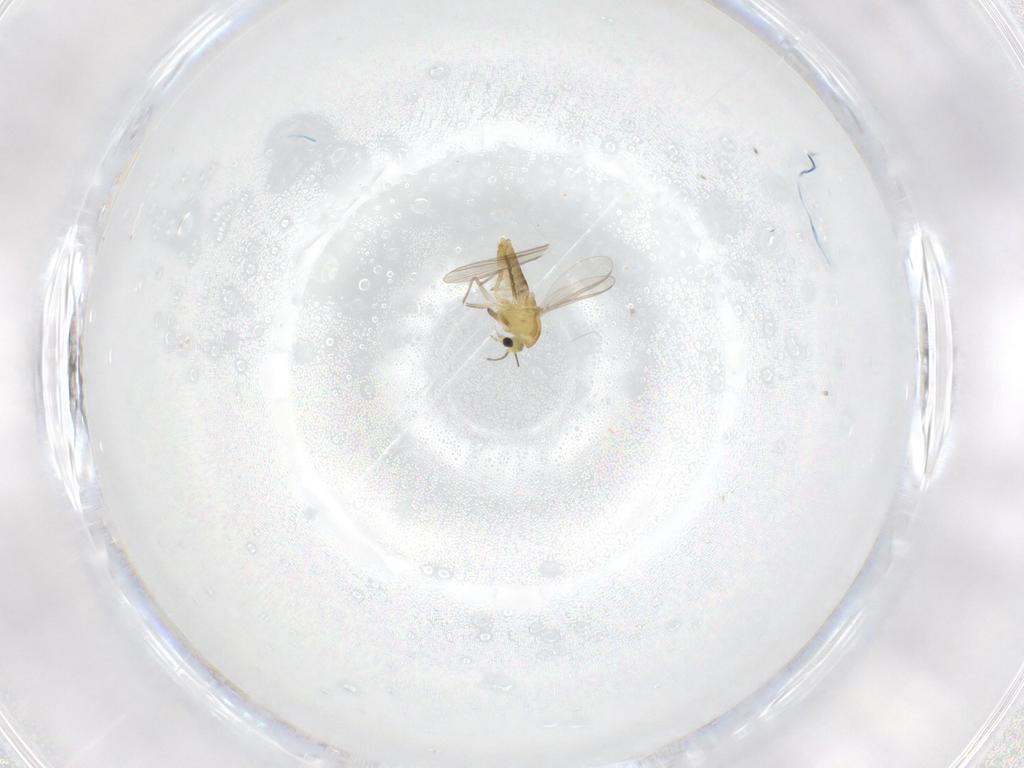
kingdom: Animalia
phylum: Arthropoda
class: Insecta
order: Diptera
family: Chironomidae
